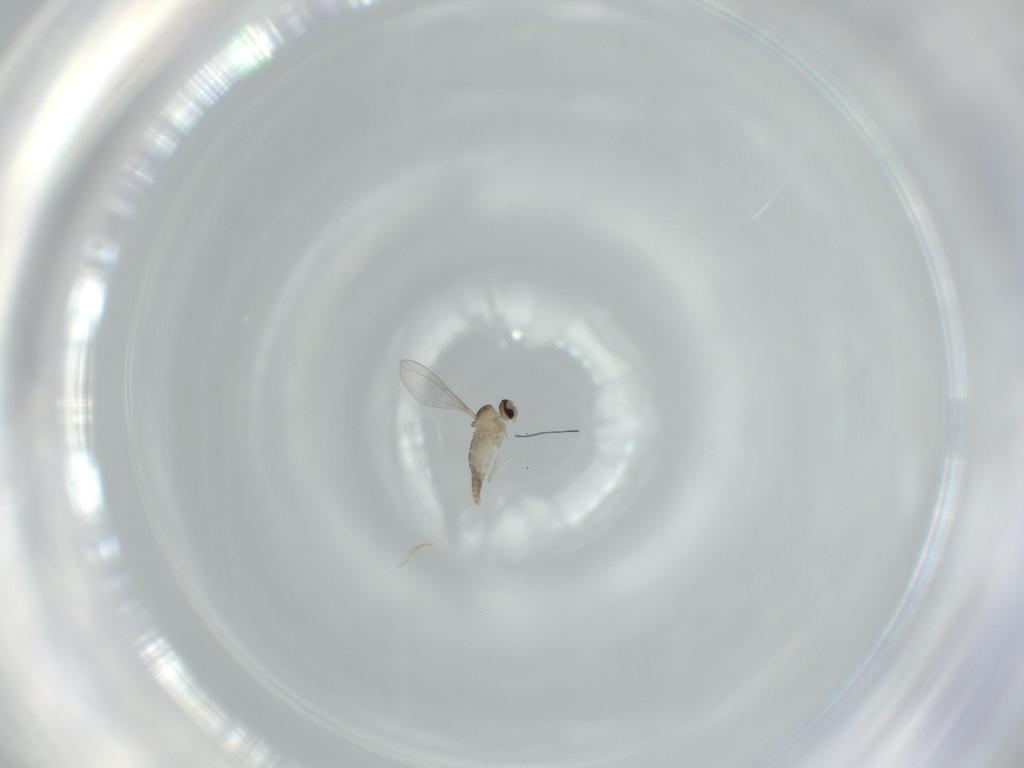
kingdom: Animalia
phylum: Arthropoda
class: Insecta
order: Diptera
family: Cecidomyiidae
